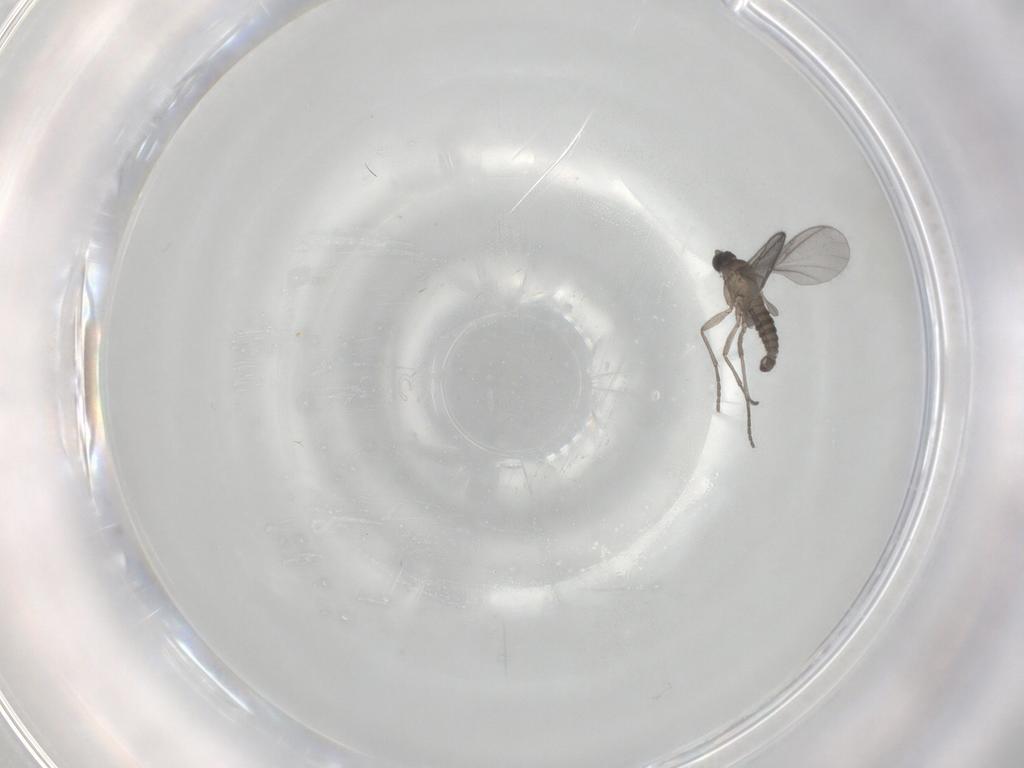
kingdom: Animalia
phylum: Arthropoda
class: Insecta
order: Diptera
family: Sciaridae
